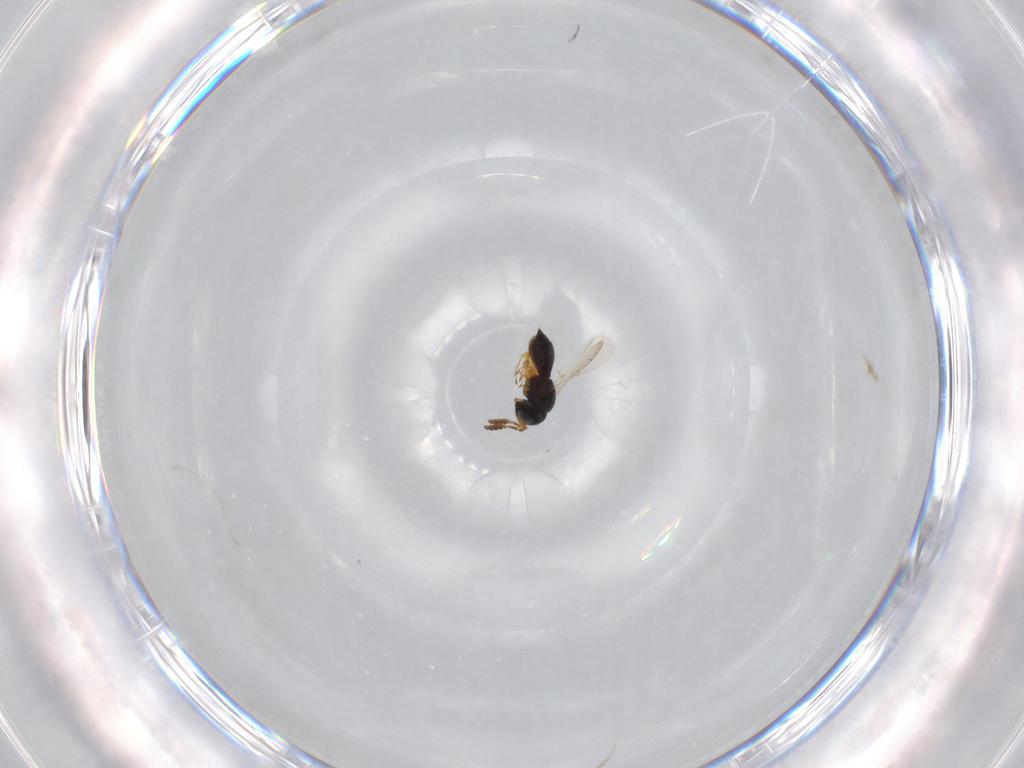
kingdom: Animalia
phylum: Arthropoda
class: Insecta
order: Hymenoptera
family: Scelionidae
